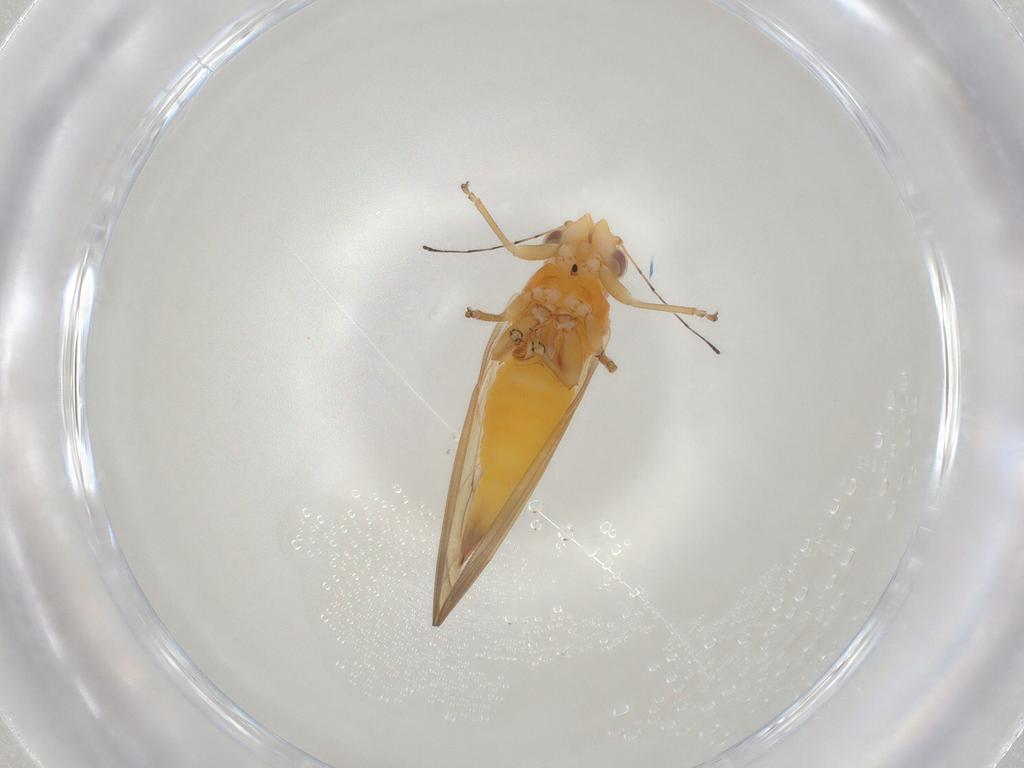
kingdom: Animalia
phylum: Arthropoda
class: Insecta
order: Hemiptera
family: Psylloidea_incertae_sedis
